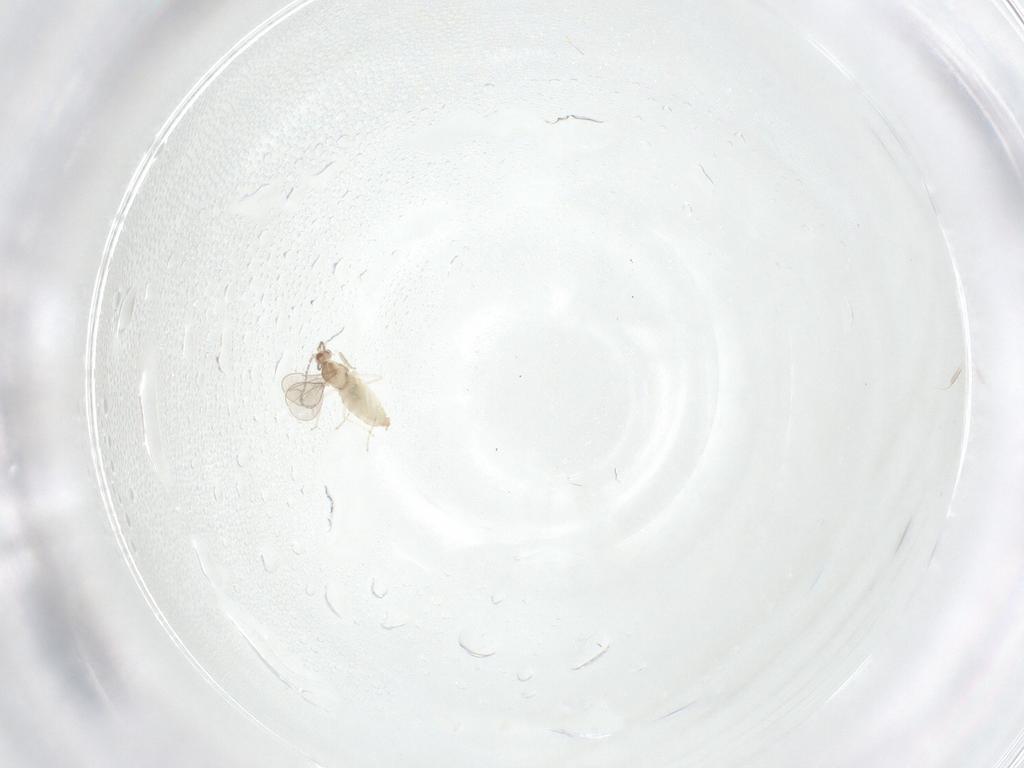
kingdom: Animalia
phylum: Arthropoda
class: Insecta
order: Diptera
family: Cecidomyiidae
